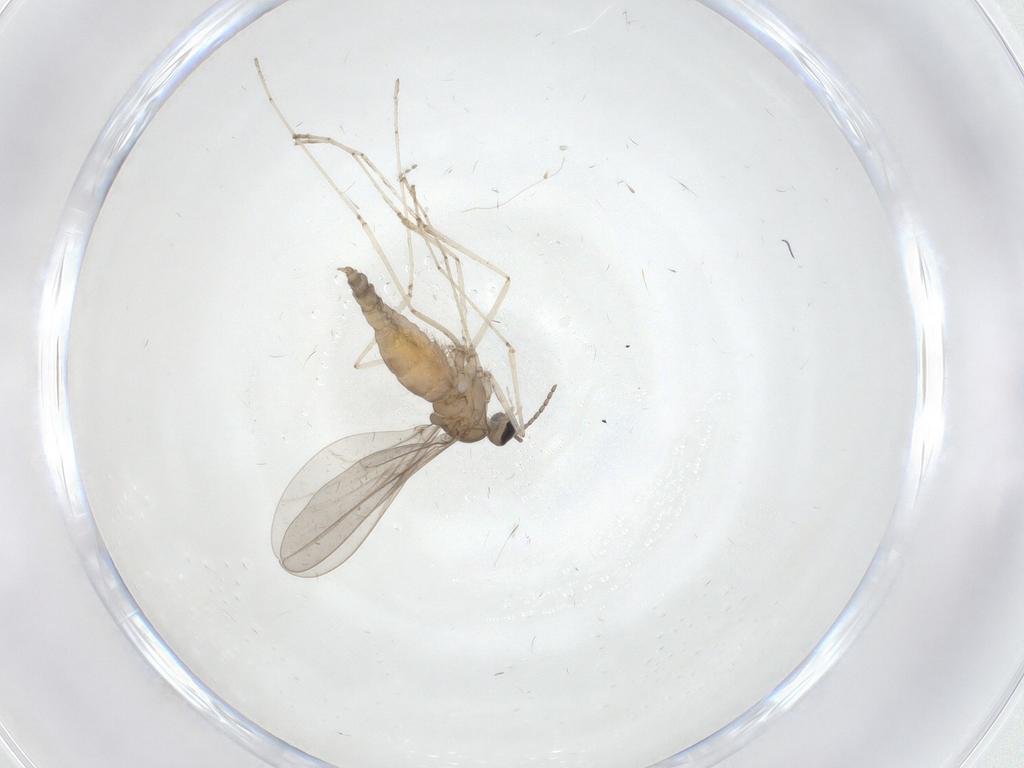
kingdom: Animalia
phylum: Arthropoda
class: Insecta
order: Diptera
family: Cecidomyiidae
